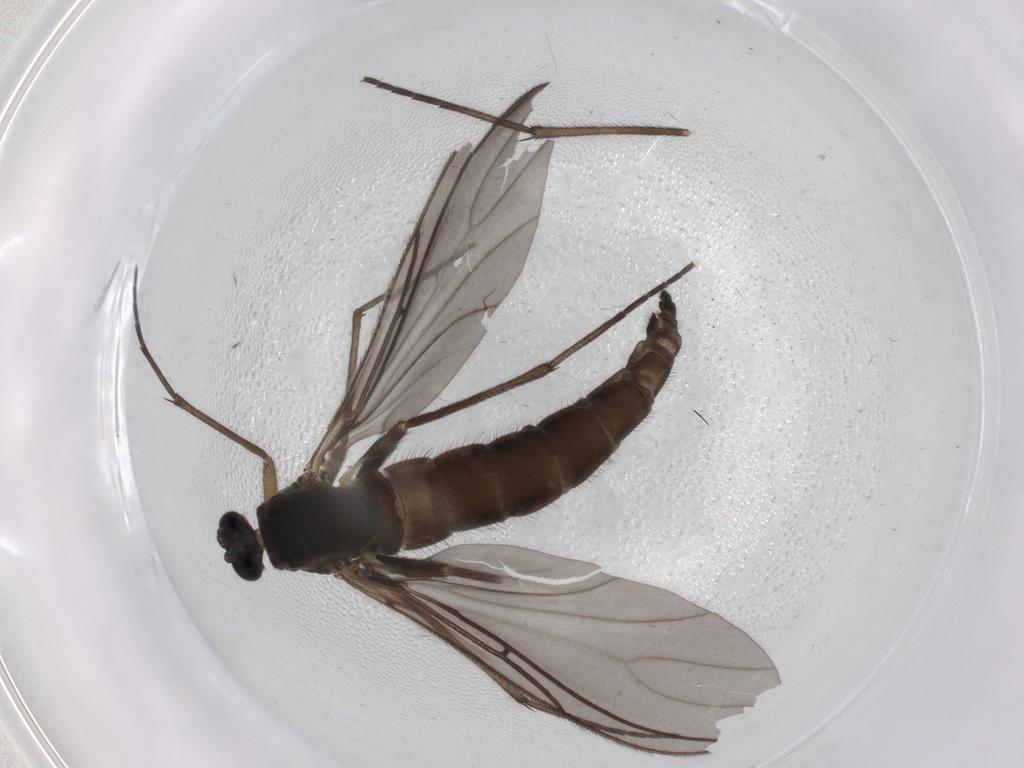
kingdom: Animalia
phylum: Arthropoda
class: Insecta
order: Diptera
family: Sciaridae
